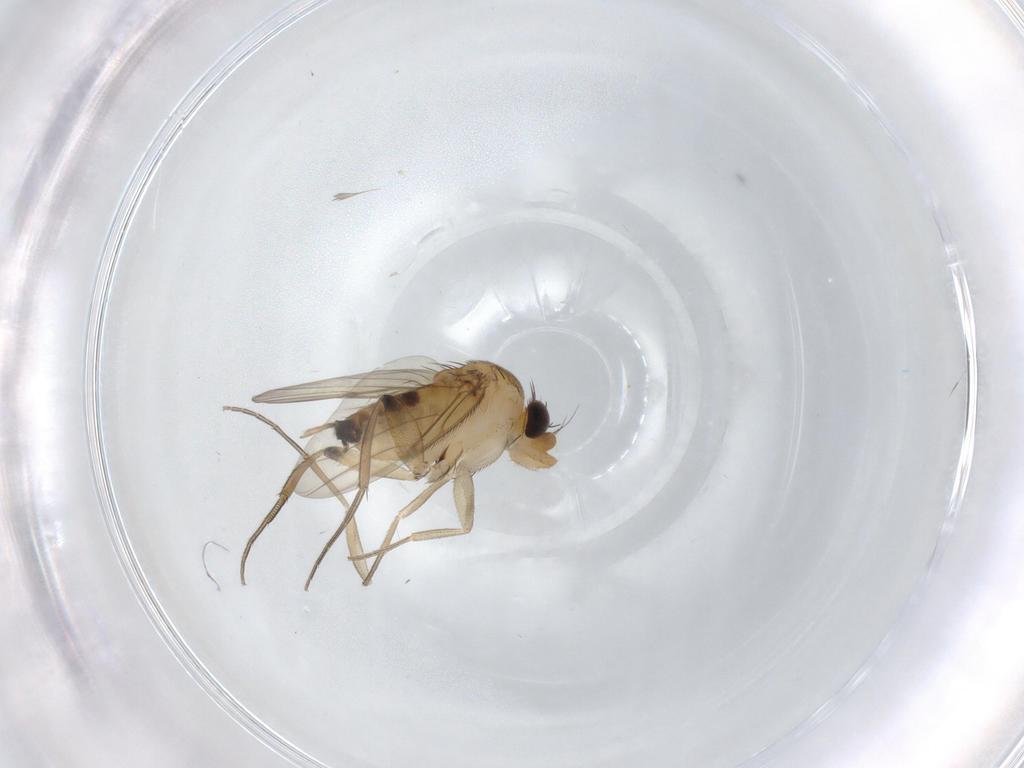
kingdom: Animalia
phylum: Arthropoda
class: Insecta
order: Diptera
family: Phoridae
